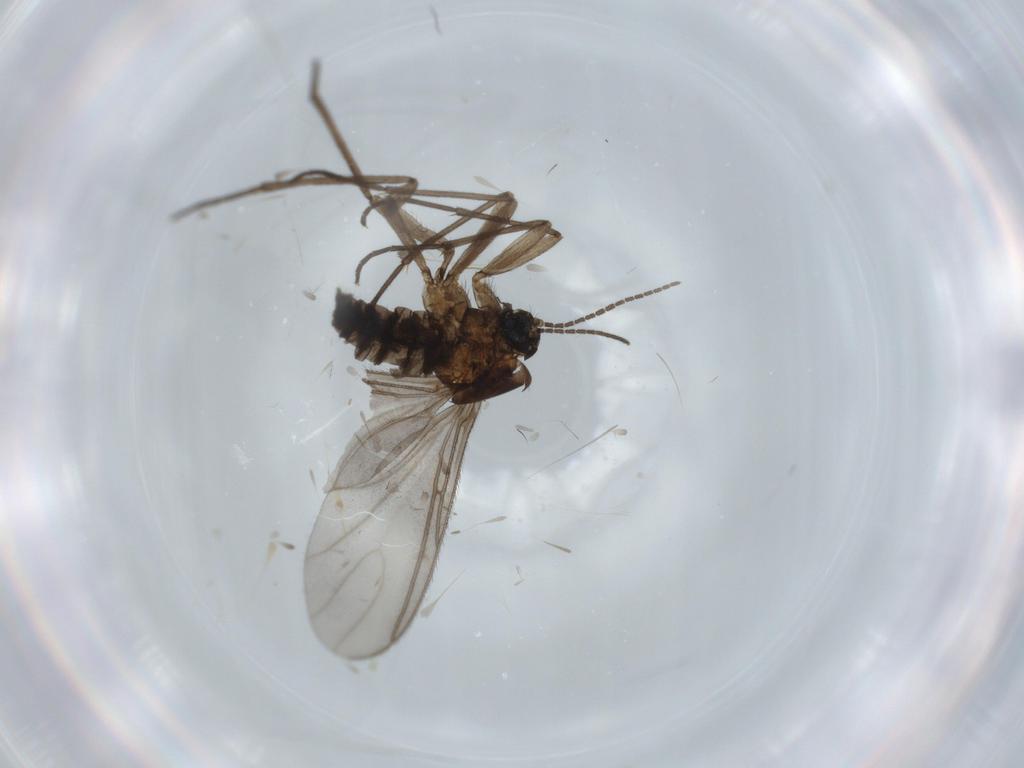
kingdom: Animalia
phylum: Arthropoda
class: Insecta
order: Diptera
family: Sciaridae
